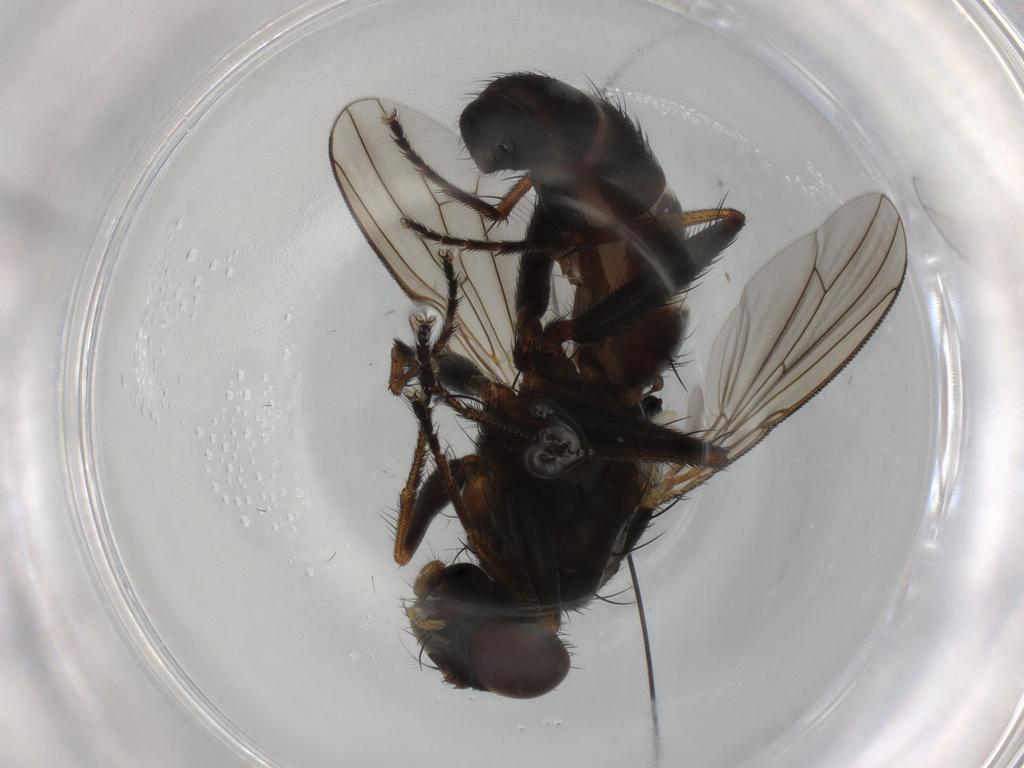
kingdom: Animalia
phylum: Arthropoda
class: Insecta
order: Diptera
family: Muscidae
